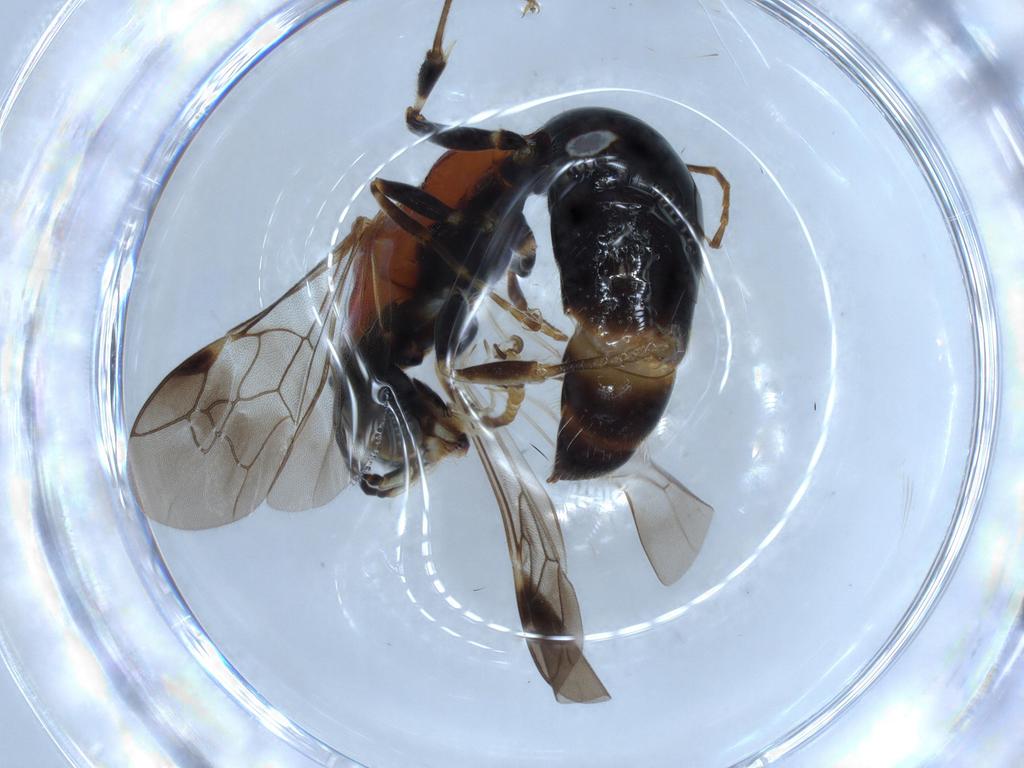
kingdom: Animalia
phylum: Arthropoda
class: Insecta
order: Hymenoptera
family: Bembicidae
